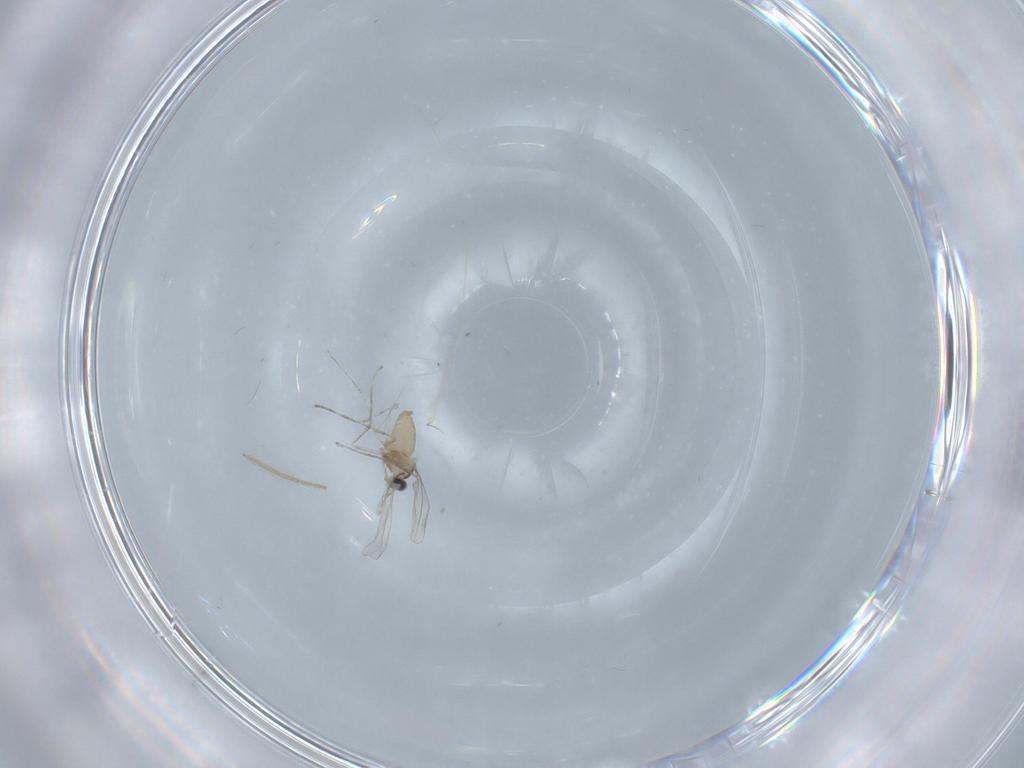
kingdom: Animalia
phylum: Arthropoda
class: Insecta
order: Diptera
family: Cecidomyiidae
